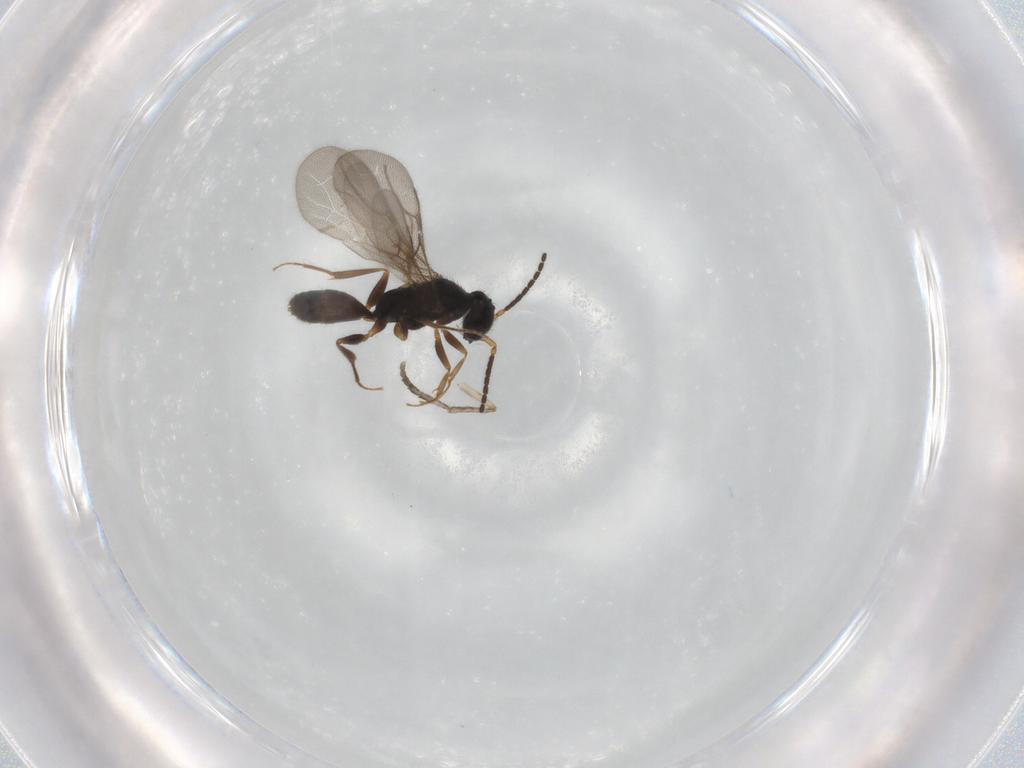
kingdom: Animalia
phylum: Arthropoda
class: Insecta
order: Hymenoptera
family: Bethylidae
